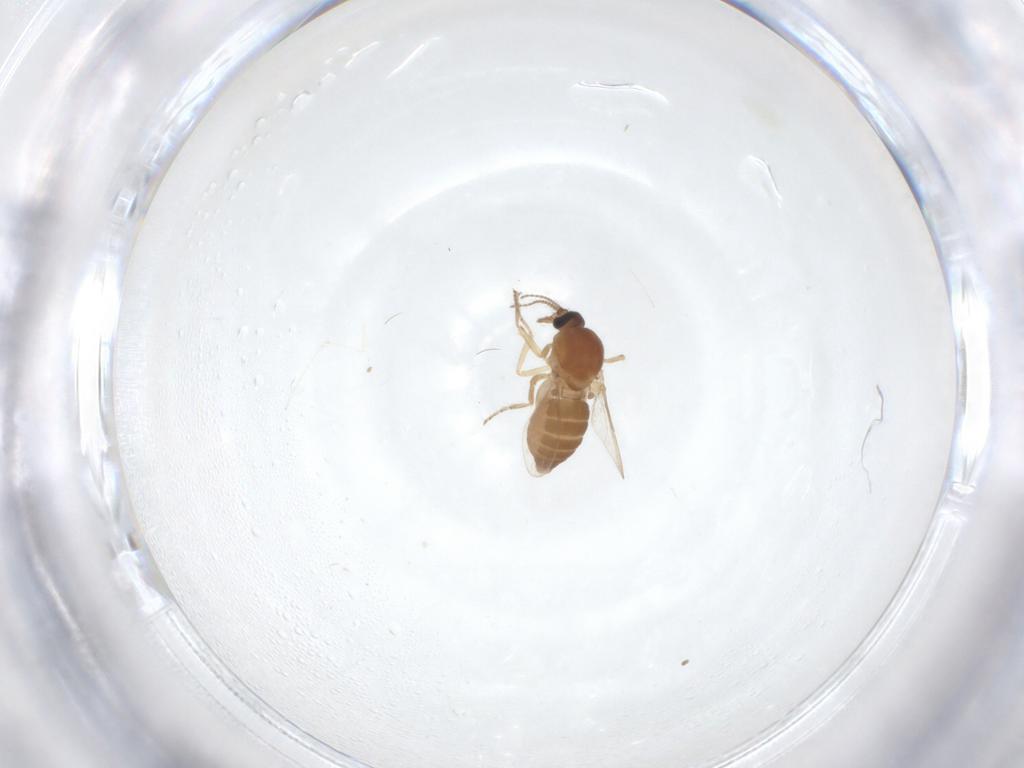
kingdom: Animalia
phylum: Arthropoda
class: Insecta
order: Diptera
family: Ceratopogonidae
